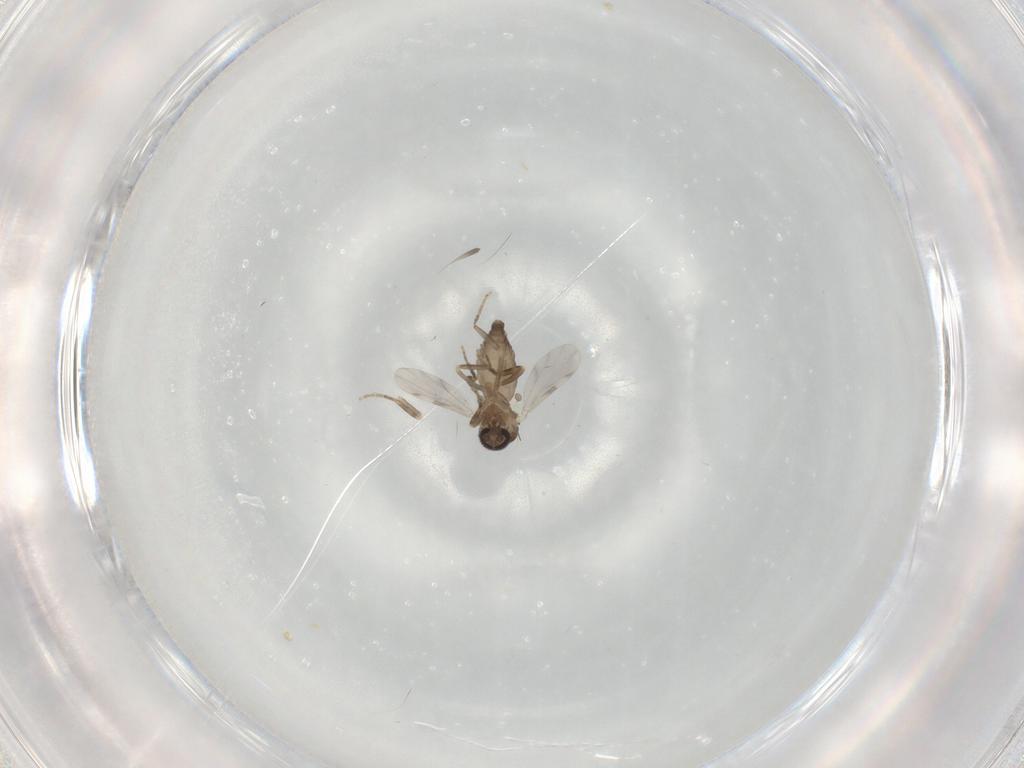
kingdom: Animalia
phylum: Arthropoda
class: Insecta
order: Diptera
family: Ceratopogonidae
